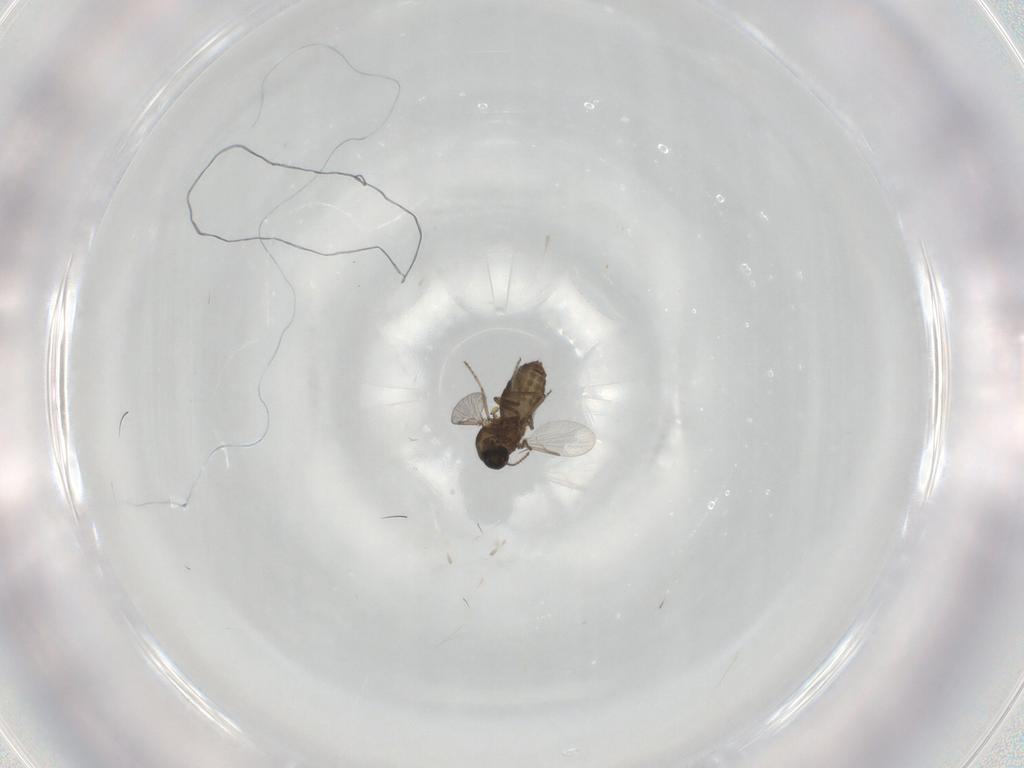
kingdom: Animalia
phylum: Arthropoda
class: Insecta
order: Diptera
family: Ceratopogonidae
